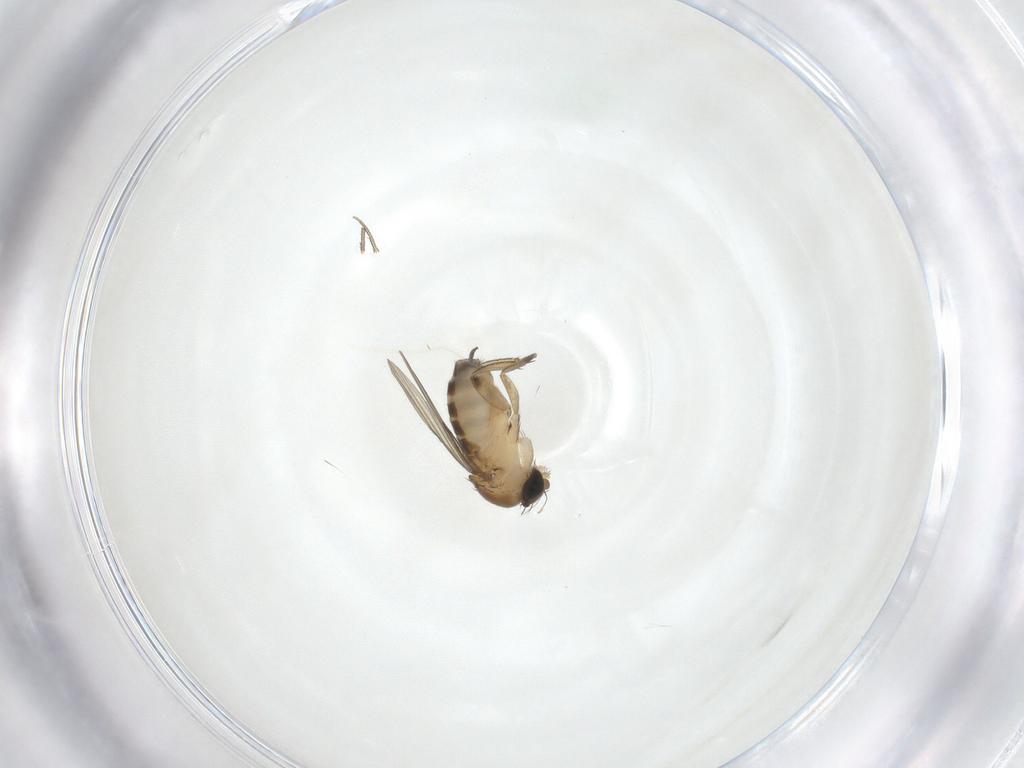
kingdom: Animalia
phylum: Arthropoda
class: Insecta
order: Diptera
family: Phoridae
